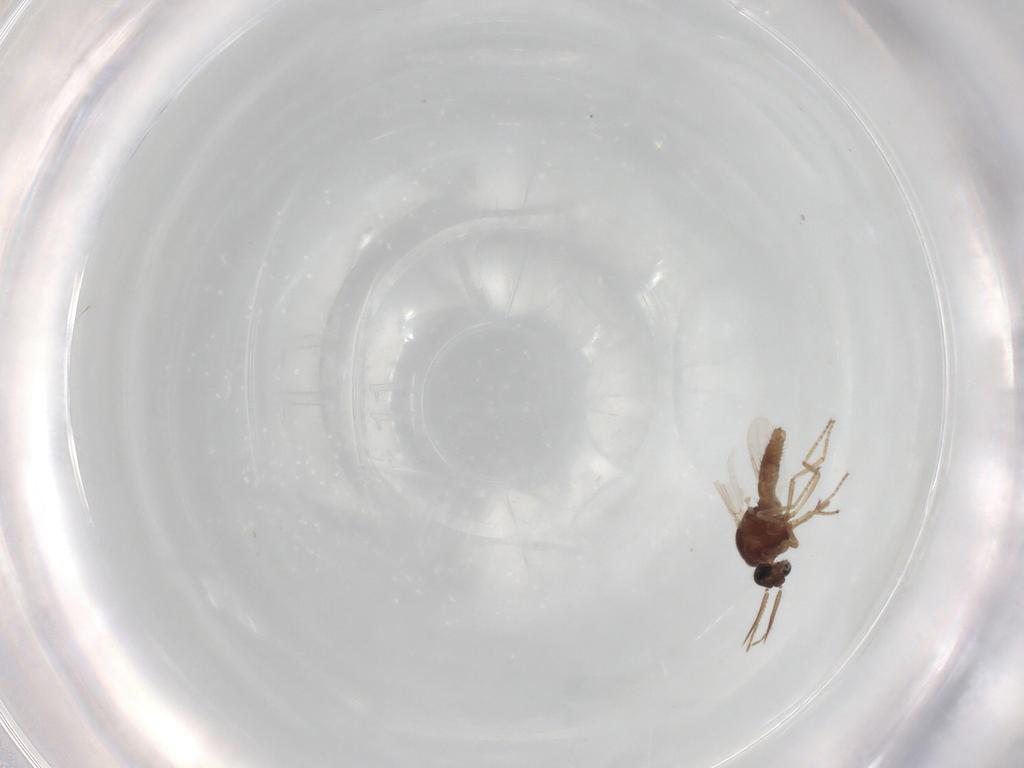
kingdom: Animalia
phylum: Arthropoda
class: Insecta
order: Diptera
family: Ceratopogonidae
